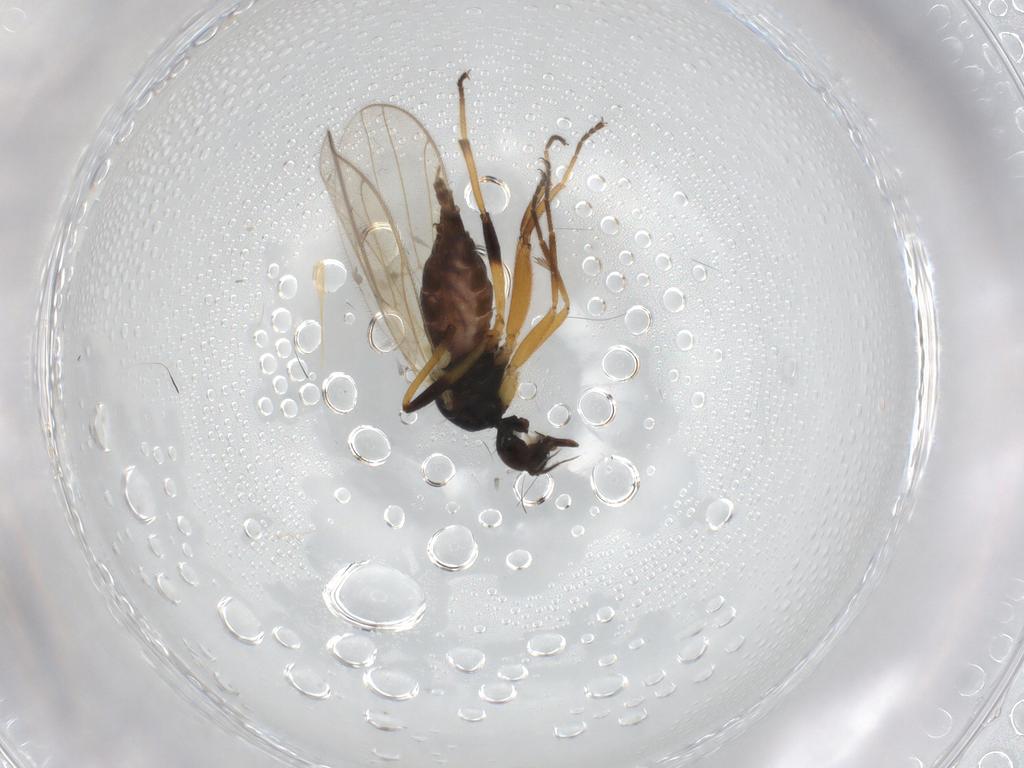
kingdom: Animalia
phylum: Arthropoda
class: Insecta
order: Diptera
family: Hybotidae
